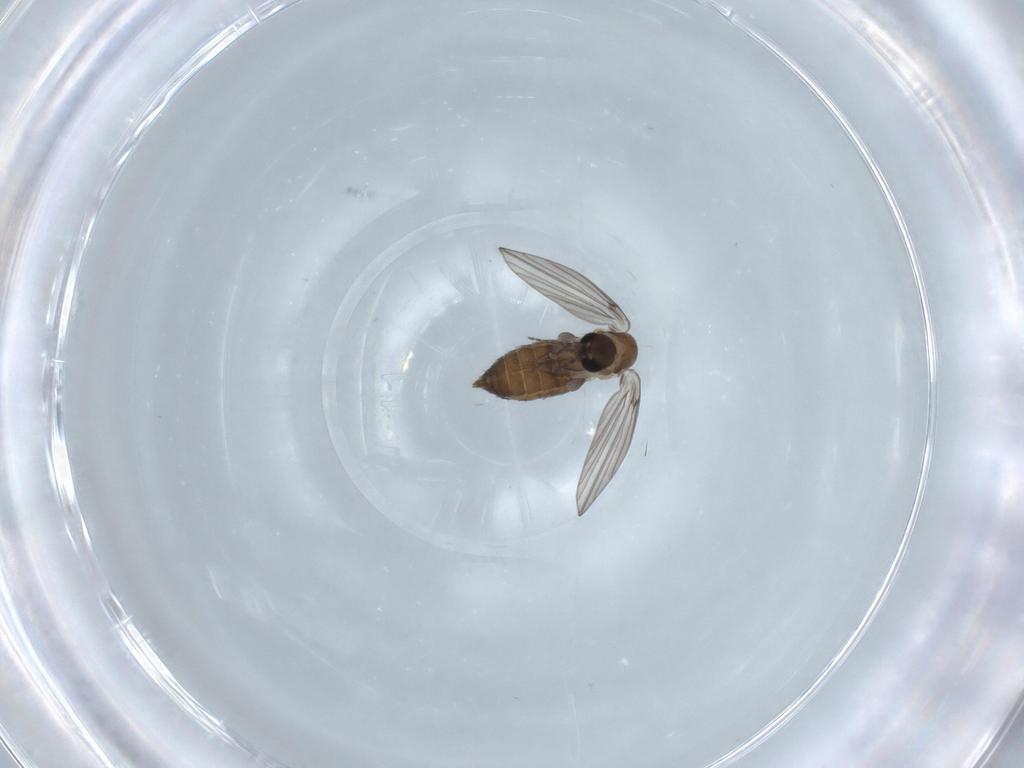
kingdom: Animalia
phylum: Arthropoda
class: Insecta
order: Diptera
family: Psychodidae
